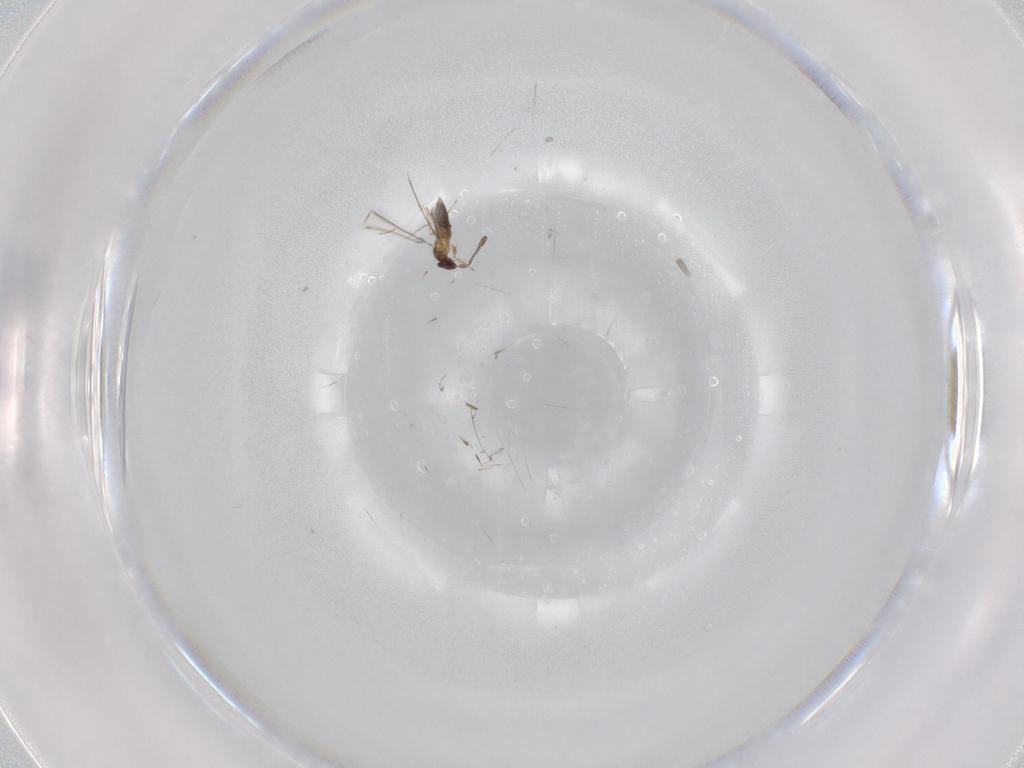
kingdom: Animalia
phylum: Arthropoda
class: Insecta
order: Hymenoptera
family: Mymaridae
